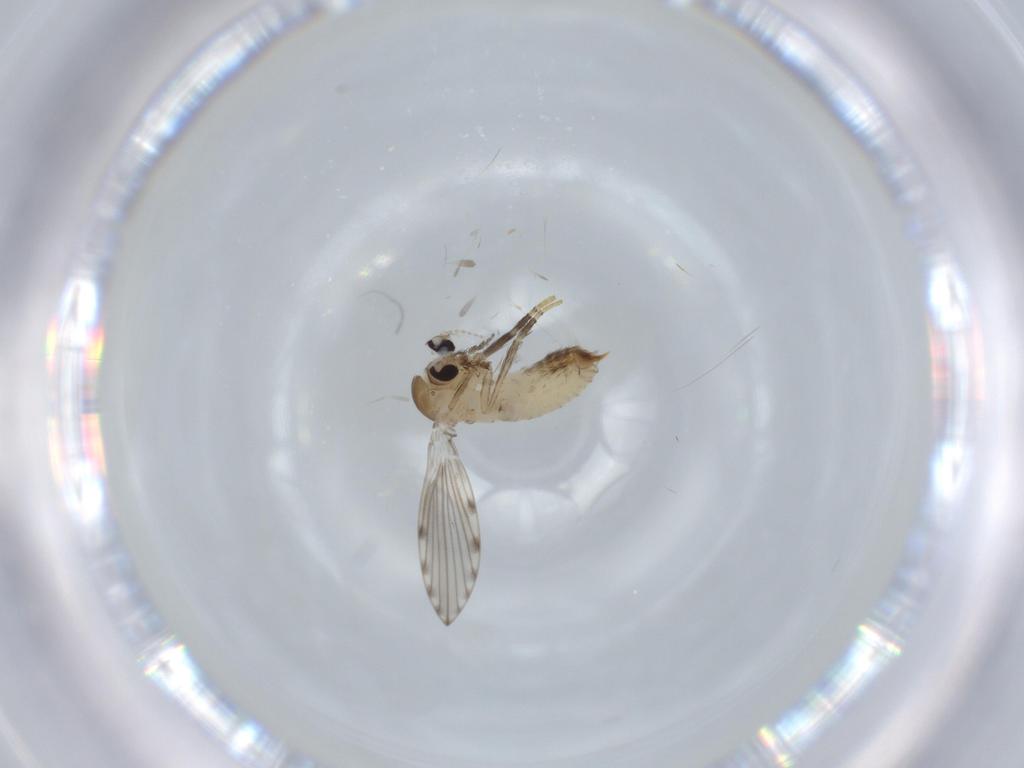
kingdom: Animalia
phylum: Arthropoda
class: Insecta
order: Diptera
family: Psychodidae
